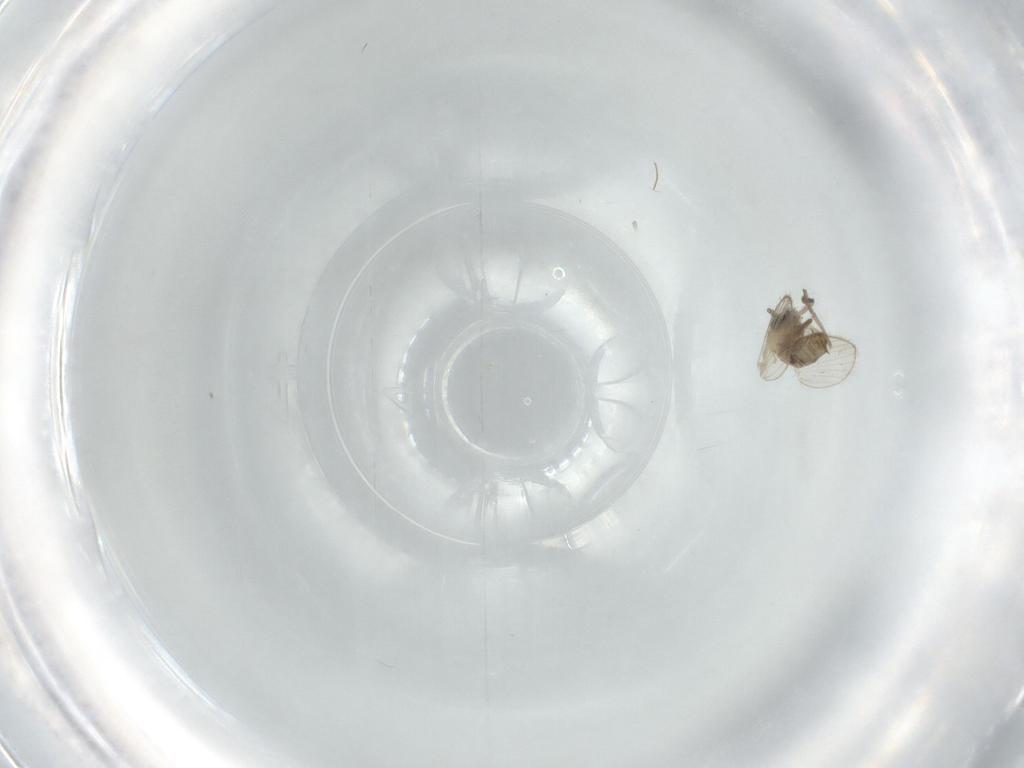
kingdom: Animalia
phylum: Arthropoda
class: Insecta
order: Diptera
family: Psychodidae
